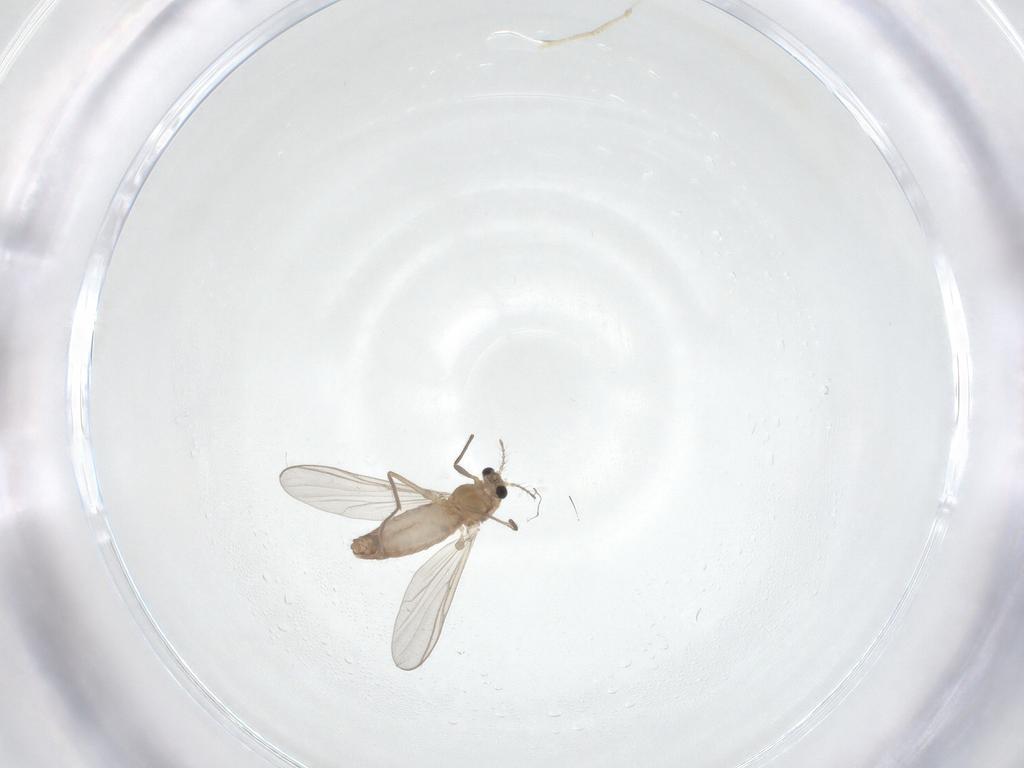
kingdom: Animalia
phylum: Arthropoda
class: Insecta
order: Diptera
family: Chironomidae
